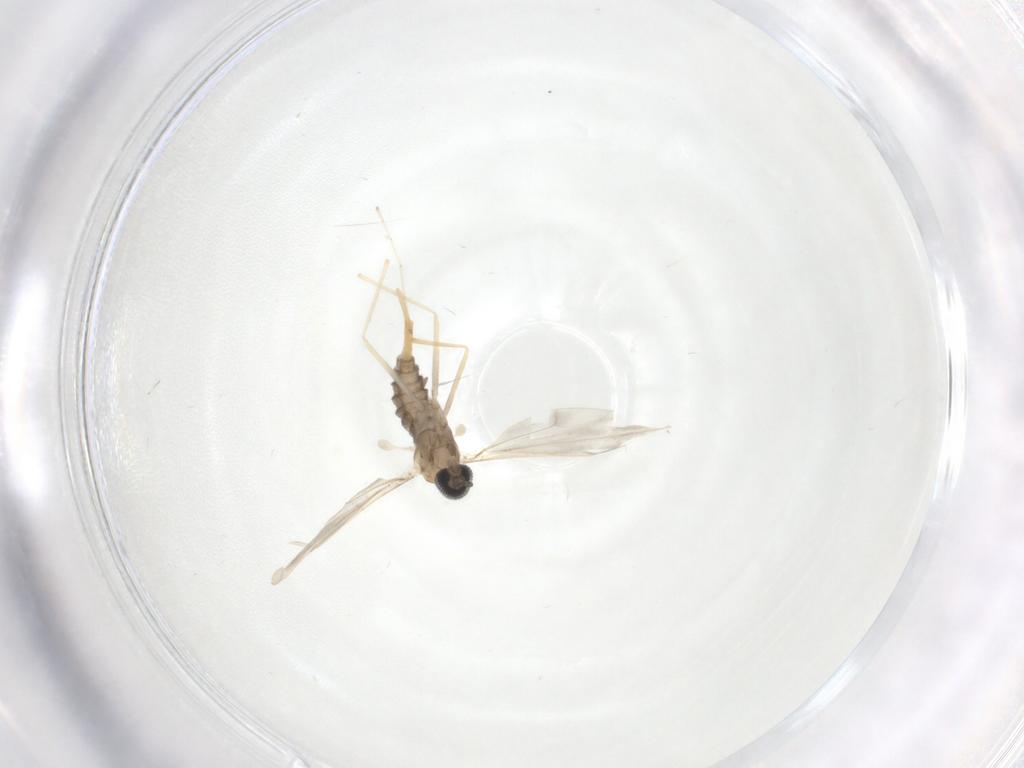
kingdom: Animalia
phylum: Arthropoda
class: Insecta
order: Diptera
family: Cecidomyiidae
